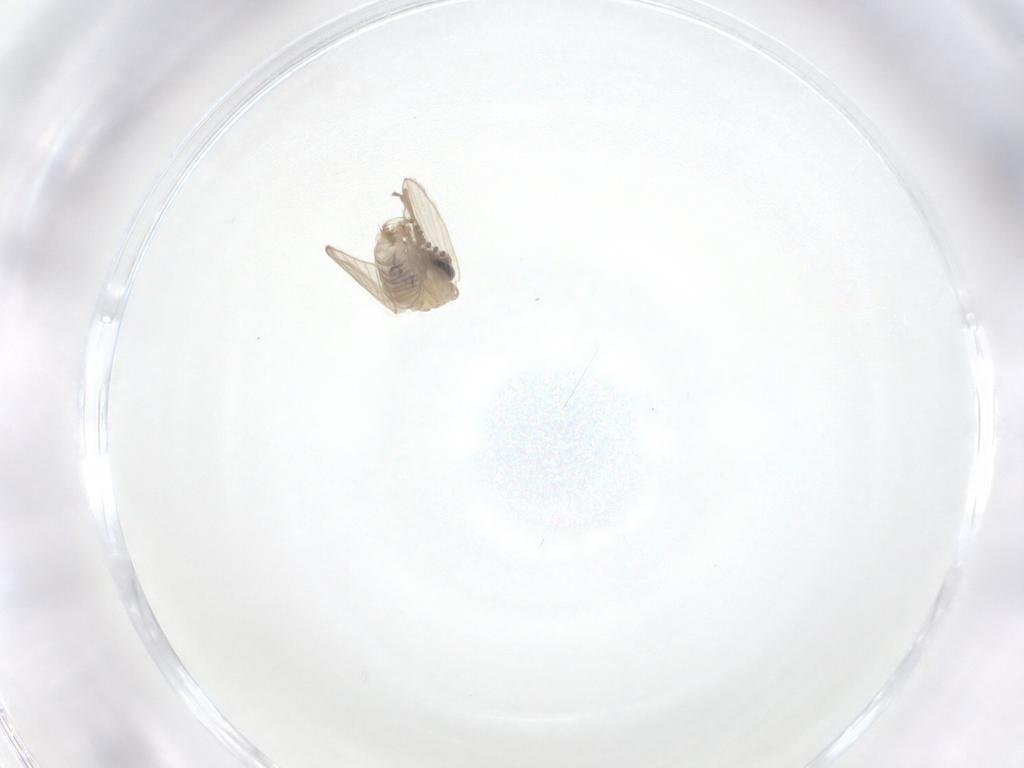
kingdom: Animalia
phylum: Arthropoda
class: Insecta
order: Diptera
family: Psychodidae
